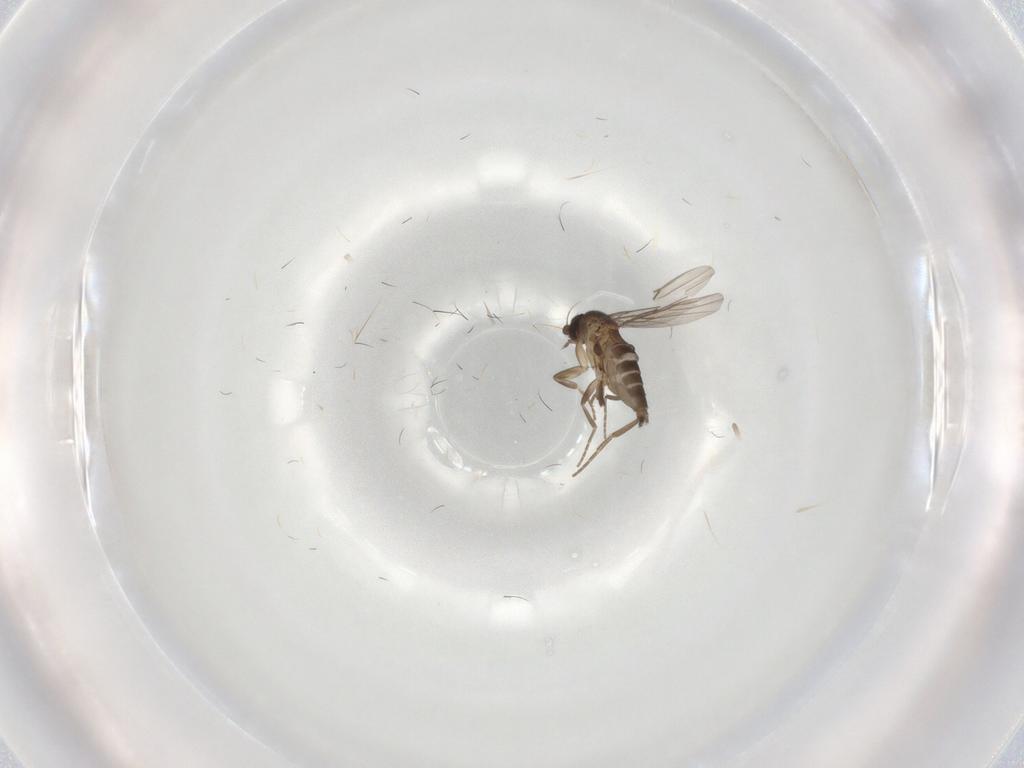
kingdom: Animalia
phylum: Arthropoda
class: Insecta
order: Diptera
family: Phoridae
